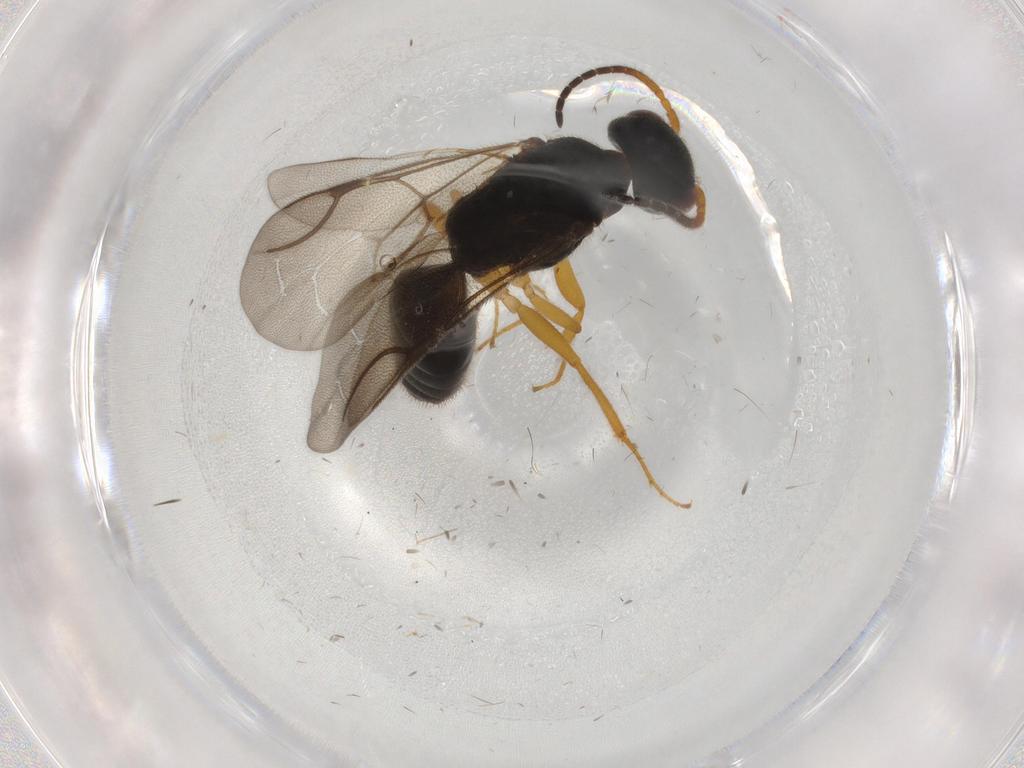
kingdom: Animalia
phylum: Arthropoda
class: Insecta
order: Hymenoptera
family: Bethylidae
